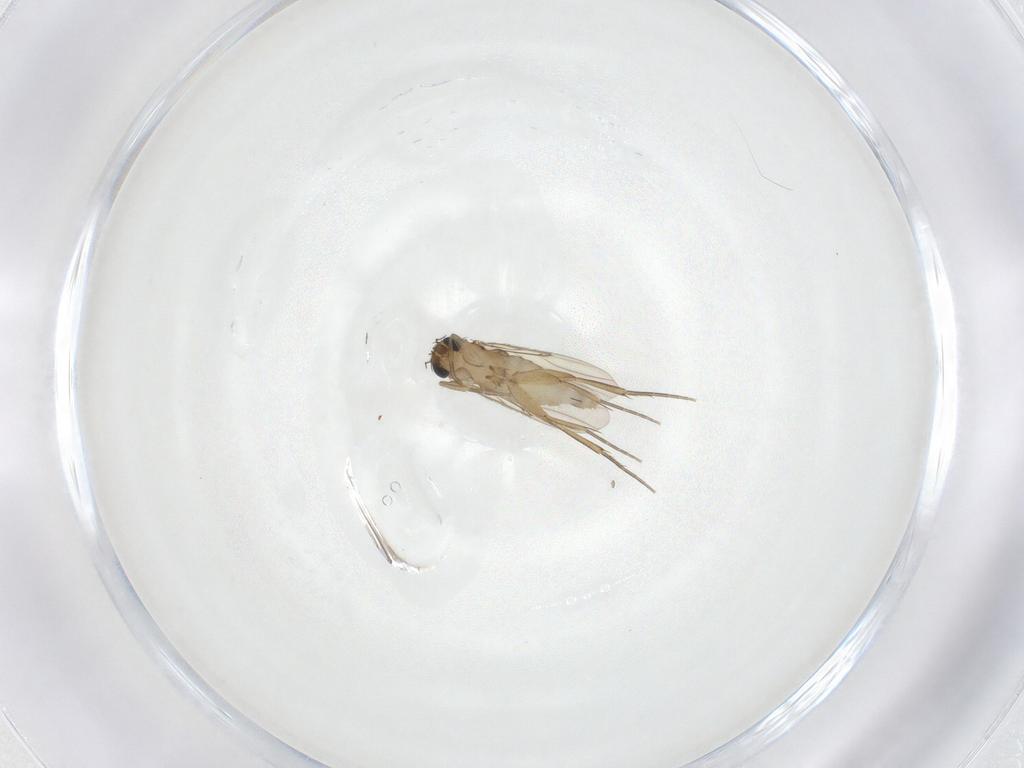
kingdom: Animalia
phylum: Arthropoda
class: Insecta
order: Diptera
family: Phoridae
